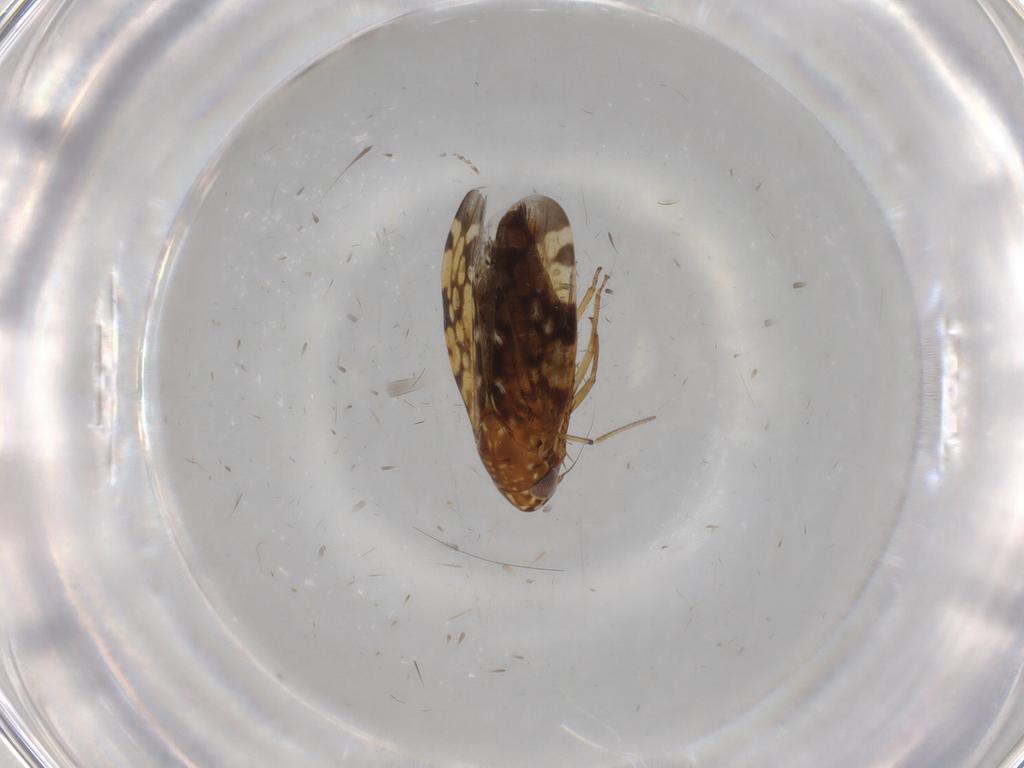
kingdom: Animalia
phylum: Arthropoda
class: Insecta
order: Hemiptera
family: Cicadellidae
